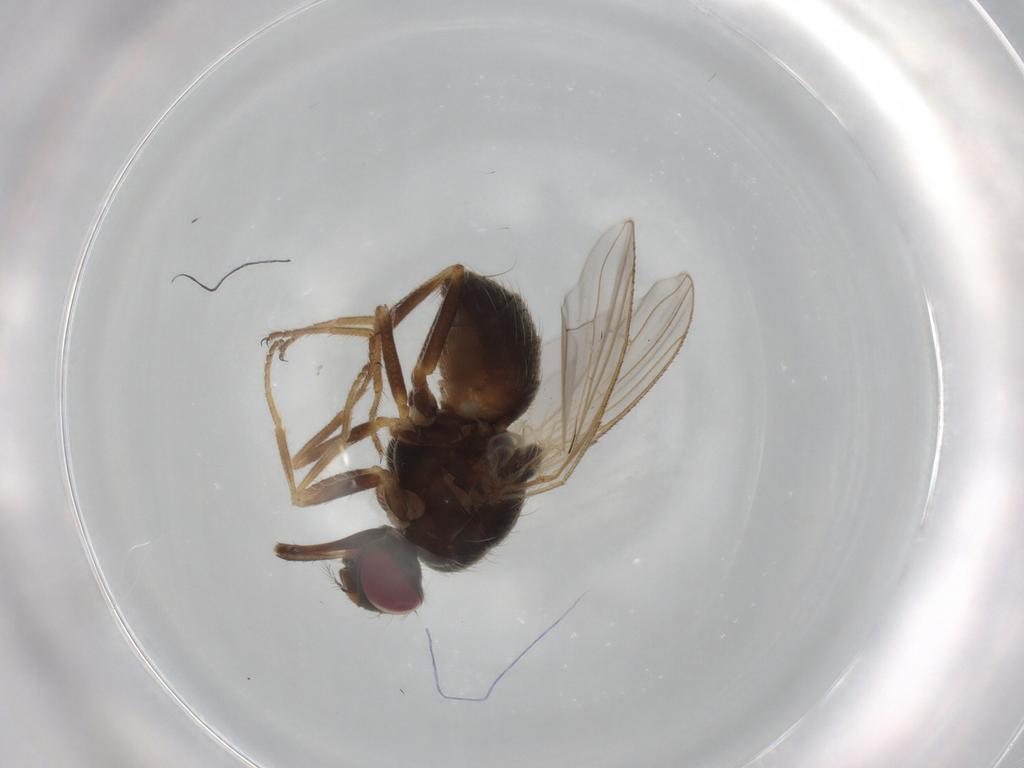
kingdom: Animalia
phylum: Arthropoda
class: Insecta
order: Diptera
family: Ceratopogonidae
